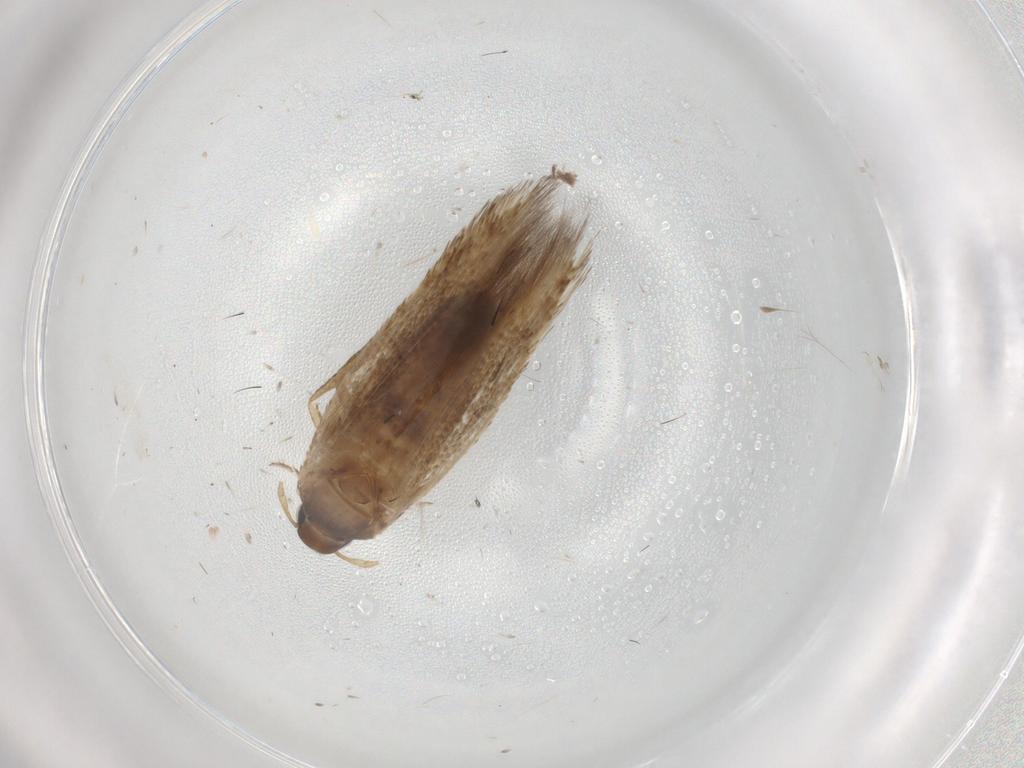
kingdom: Animalia
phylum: Arthropoda
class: Insecta
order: Lepidoptera
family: Cosmopterigidae
